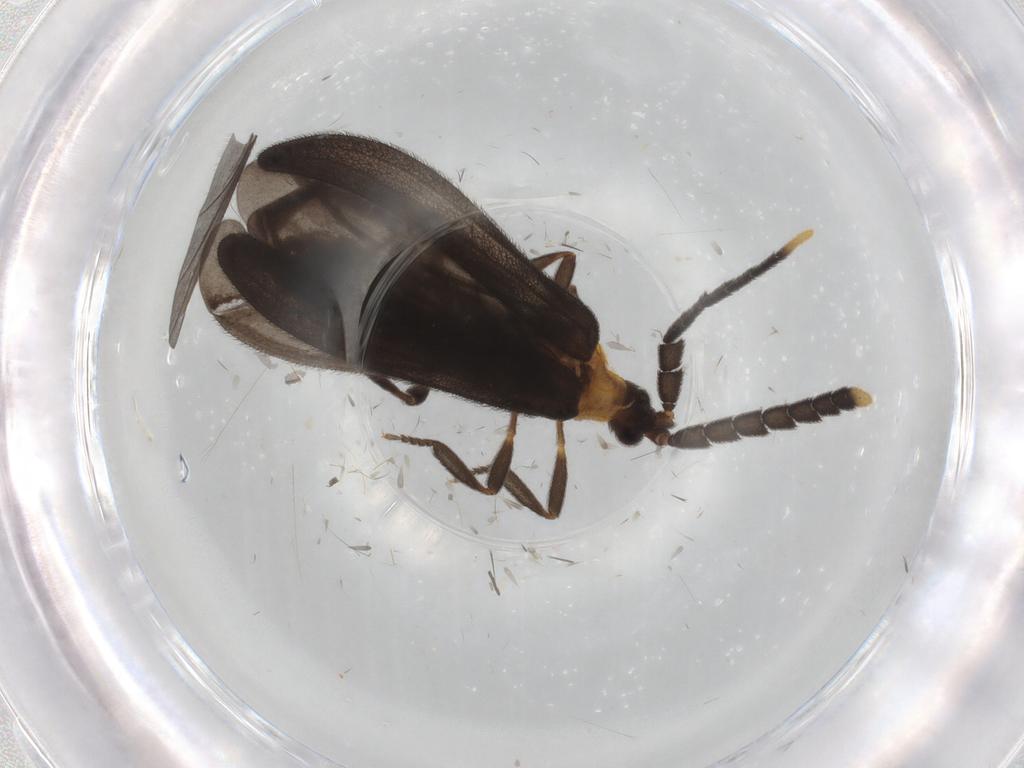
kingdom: Animalia
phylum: Arthropoda
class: Insecta
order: Coleoptera
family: Lycidae
